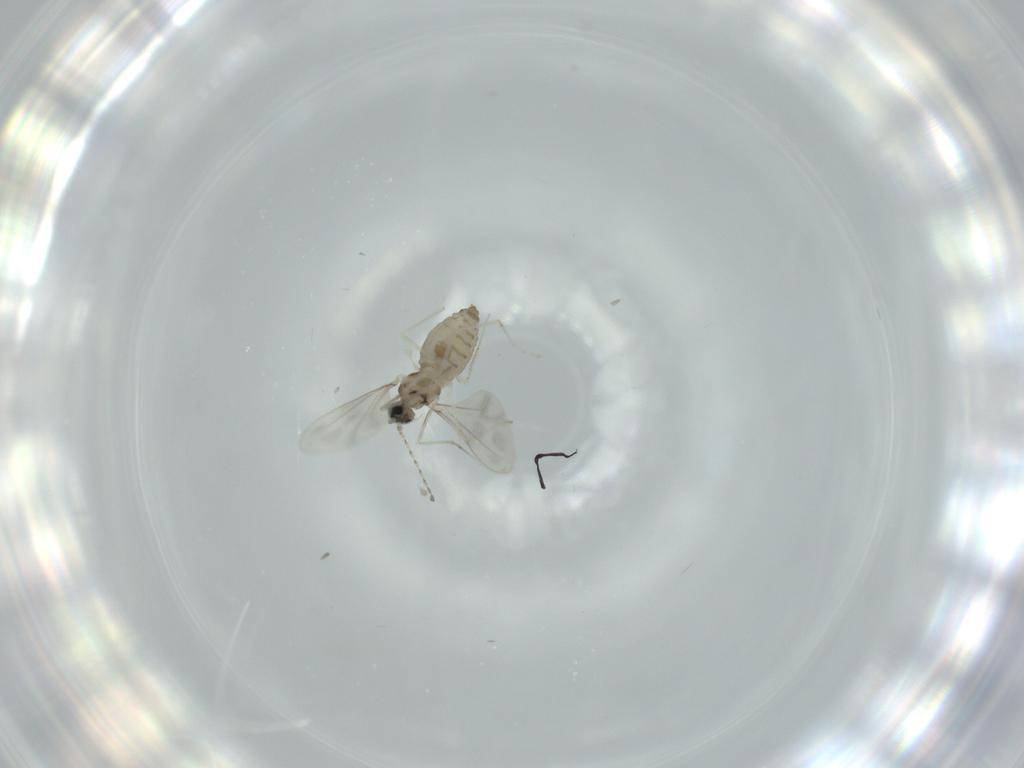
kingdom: Animalia
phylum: Arthropoda
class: Insecta
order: Diptera
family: Cecidomyiidae
